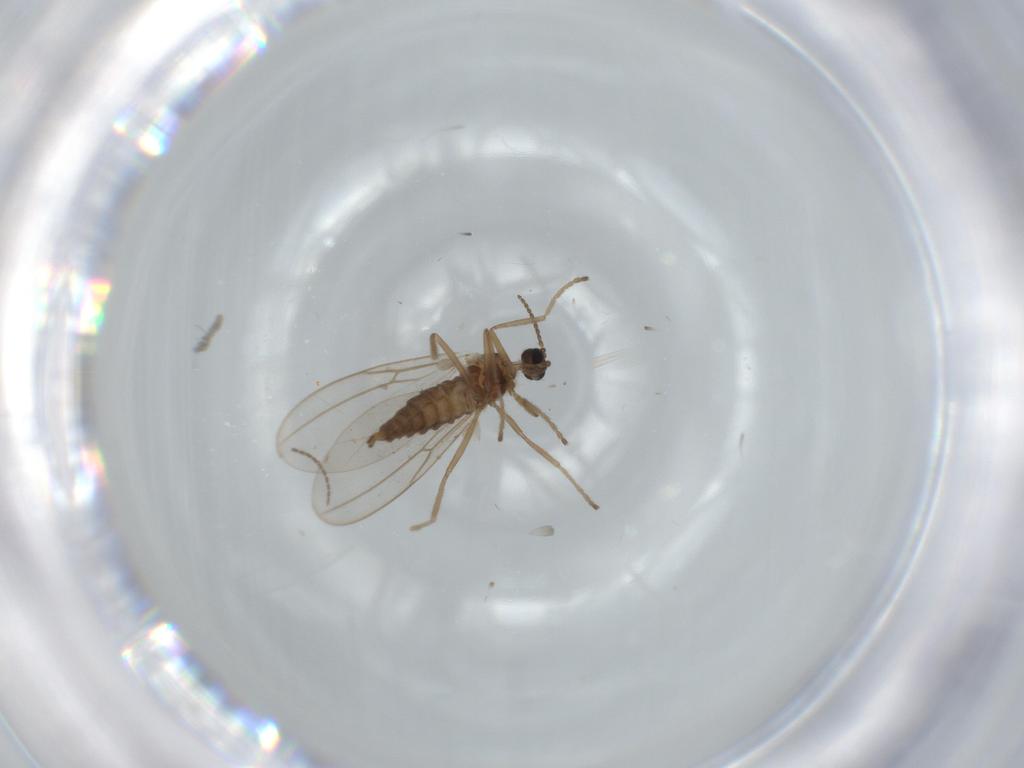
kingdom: Animalia
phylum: Arthropoda
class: Insecta
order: Diptera
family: Cecidomyiidae
